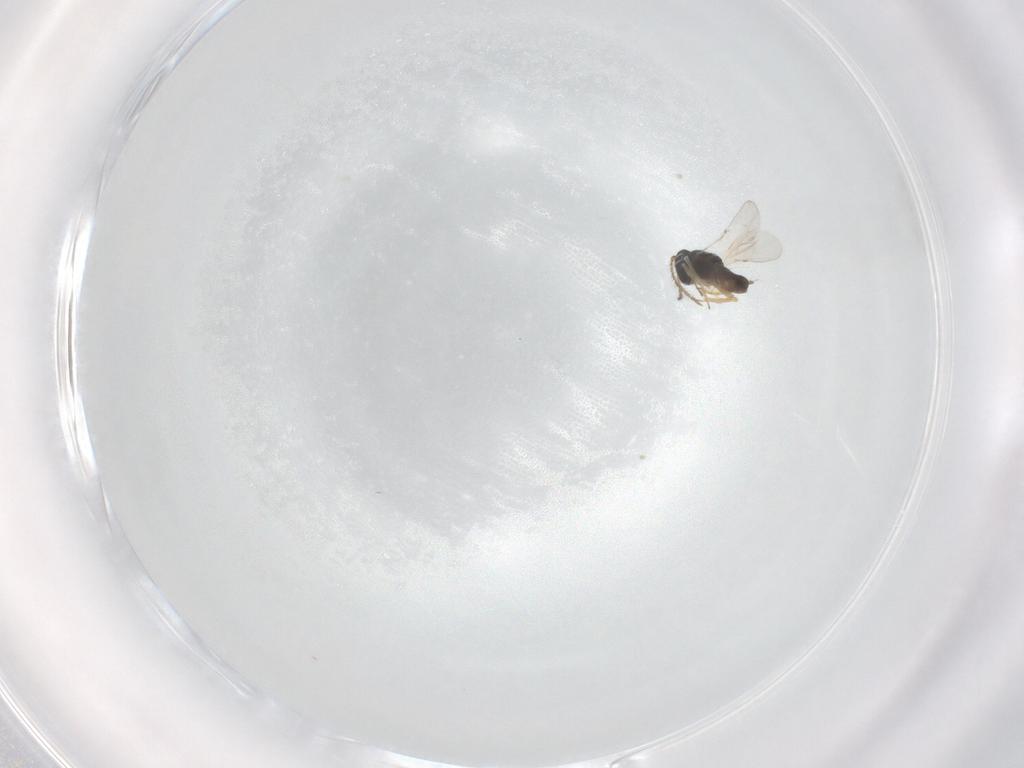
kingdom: Animalia
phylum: Arthropoda
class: Insecta
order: Hymenoptera
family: Encyrtidae
